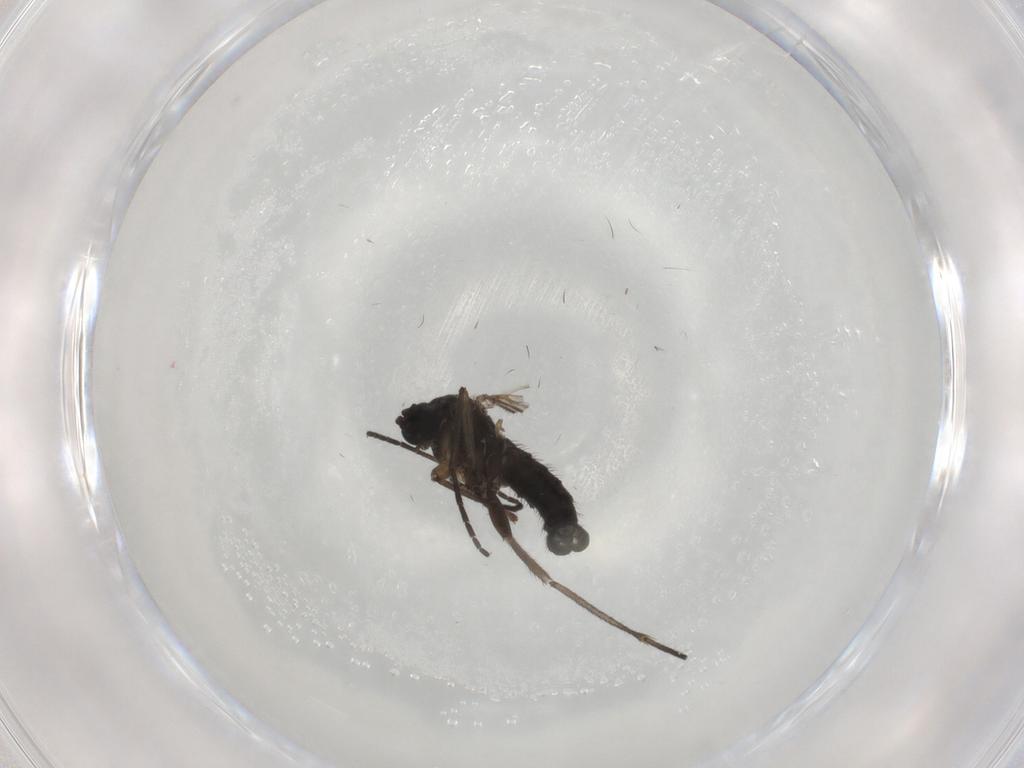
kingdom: Animalia
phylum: Arthropoda
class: Insecta
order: Diptera
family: Sciaridae
